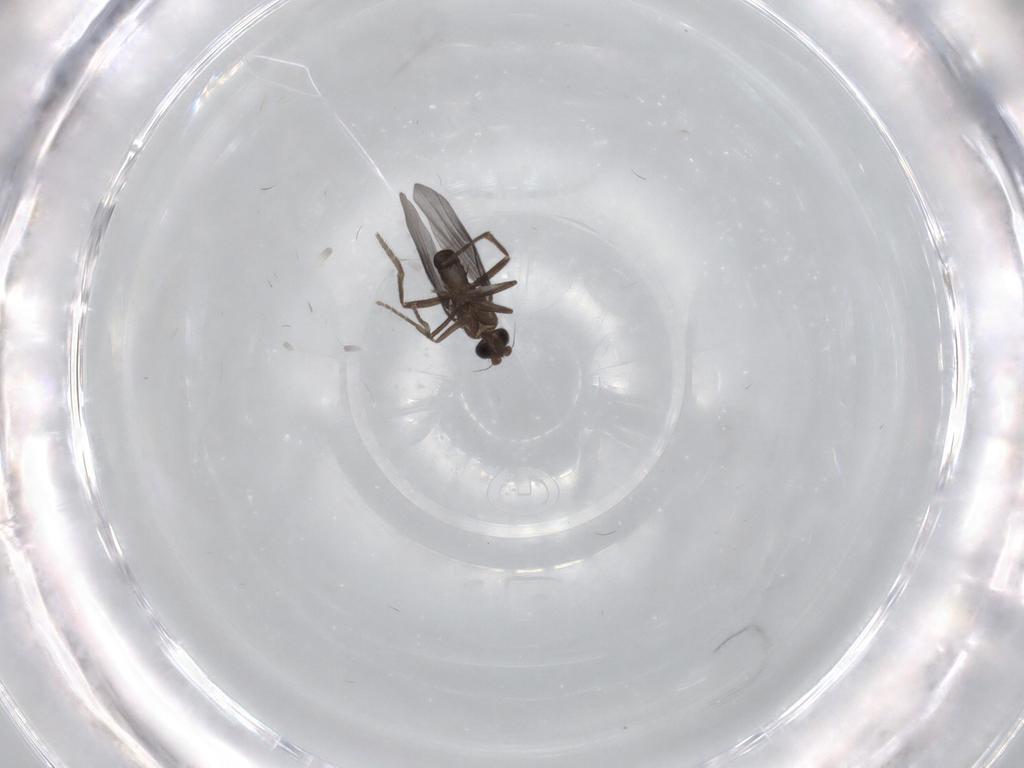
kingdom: Animalia
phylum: Arthropoda
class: Insecta
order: Diptera
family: Phoridae
